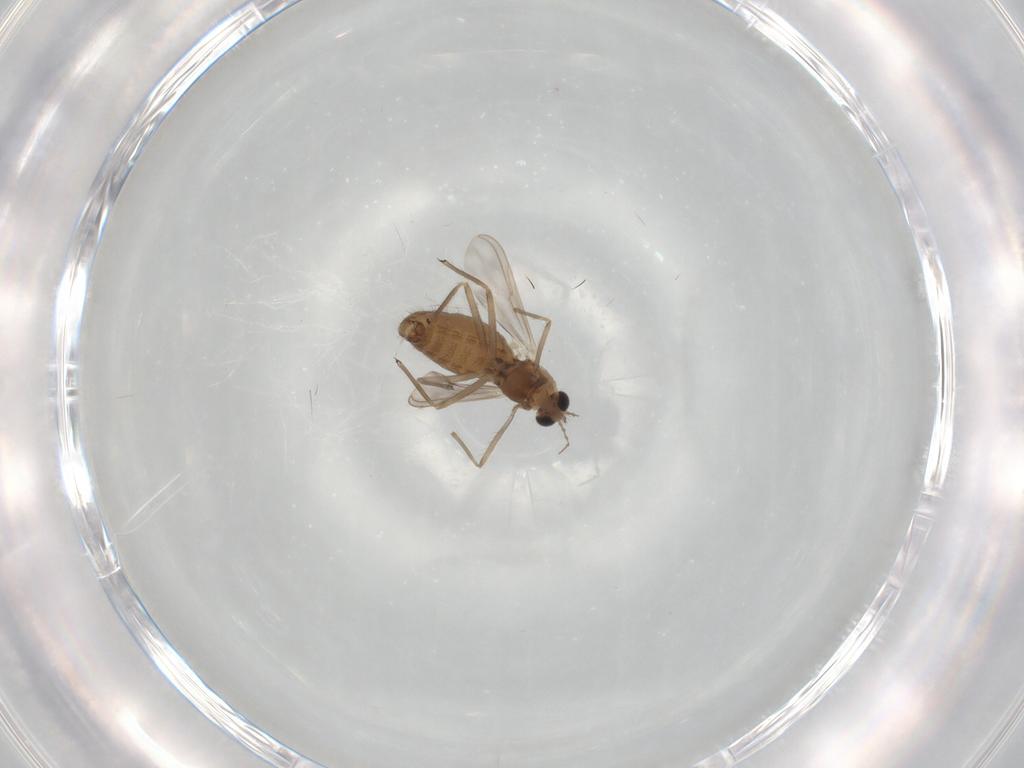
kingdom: Animalia
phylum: Arthropoda
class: Insecta
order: Diptera
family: Chironomidae
